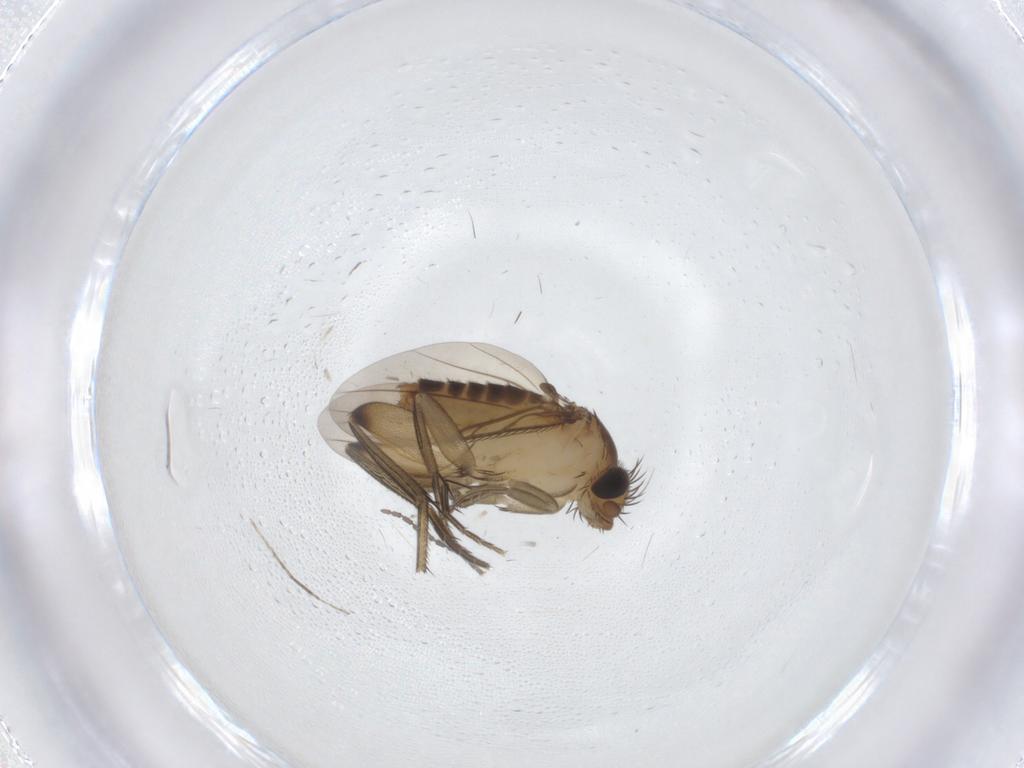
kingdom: Animalia
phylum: Arthropoda
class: Insecta
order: Diptera
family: Phoridae
